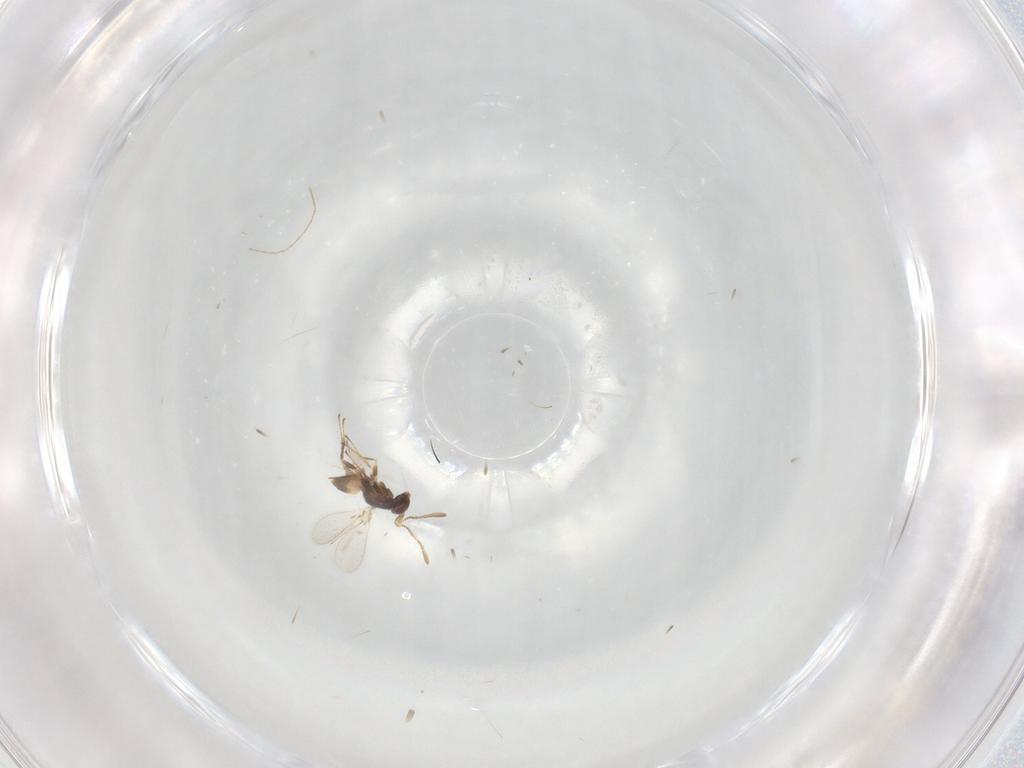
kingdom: Animalia
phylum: Arthropoda
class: Insecta
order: Hymenoptera
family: Mymaridae
